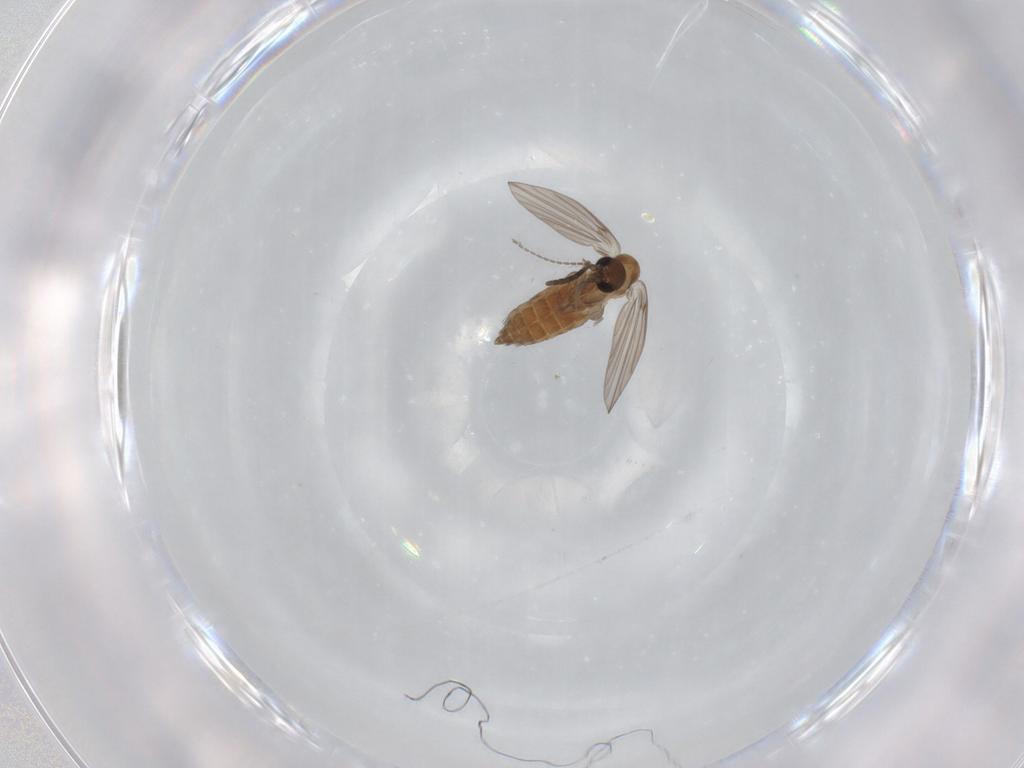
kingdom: Animalia
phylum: Arthropoda
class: Insecta
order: Diptera
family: Psychodidae
